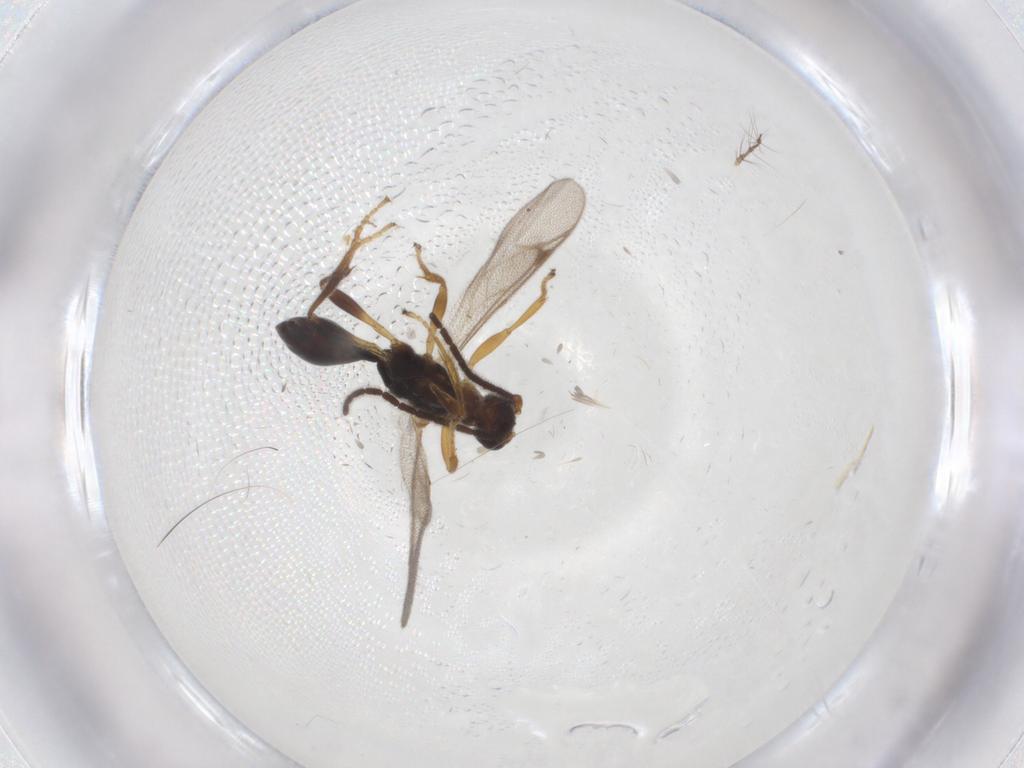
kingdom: Animalia
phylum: Arthropoda
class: Insecta
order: Hymenoptera
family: Proctotrupidae
